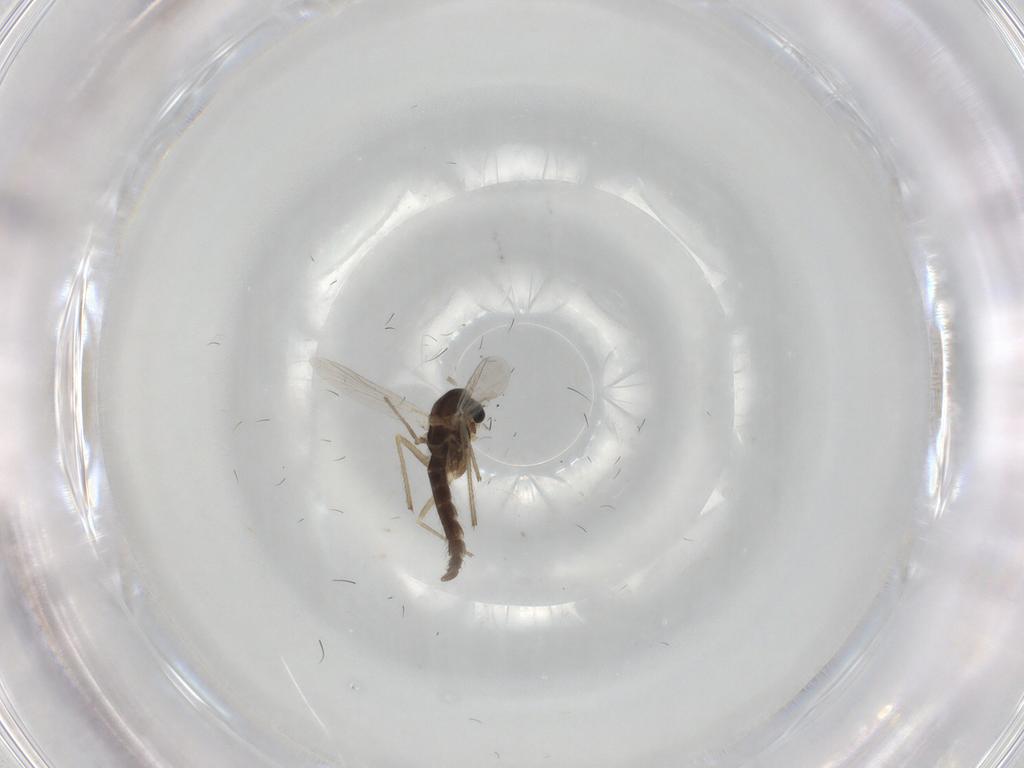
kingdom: Animalia
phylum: Arthropoda
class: Insecta
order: Diptera
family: Chironomidae
